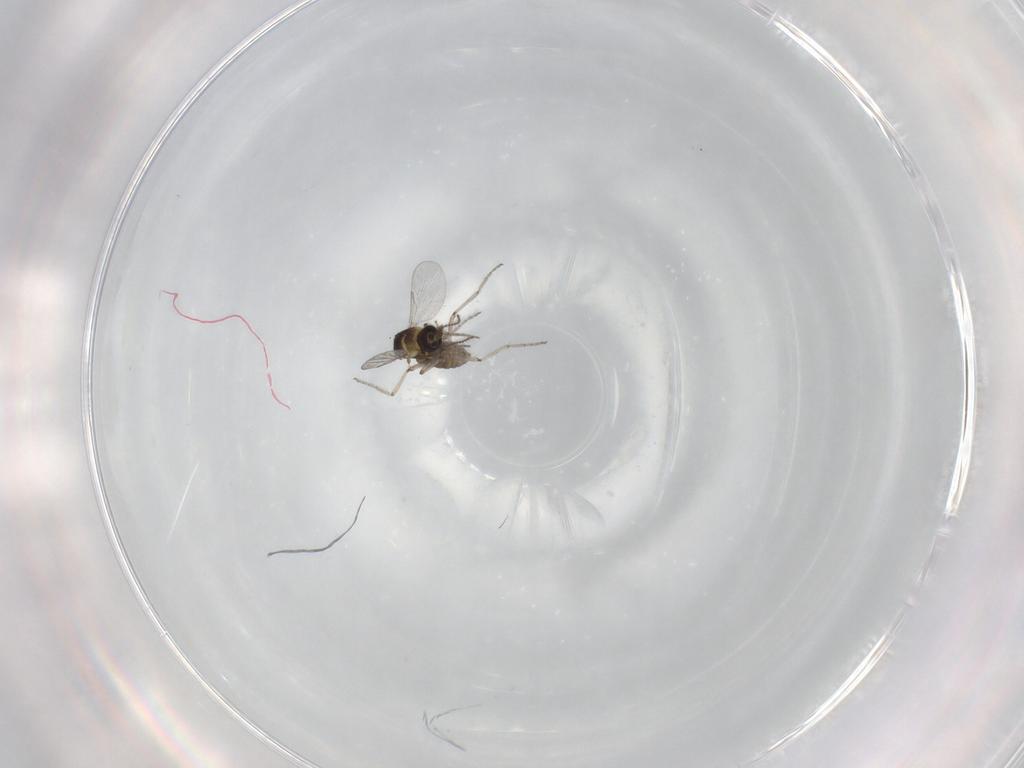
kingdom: Animalia
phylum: Arthropoda
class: Insecta
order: Diptera
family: Ceratopogonidae
